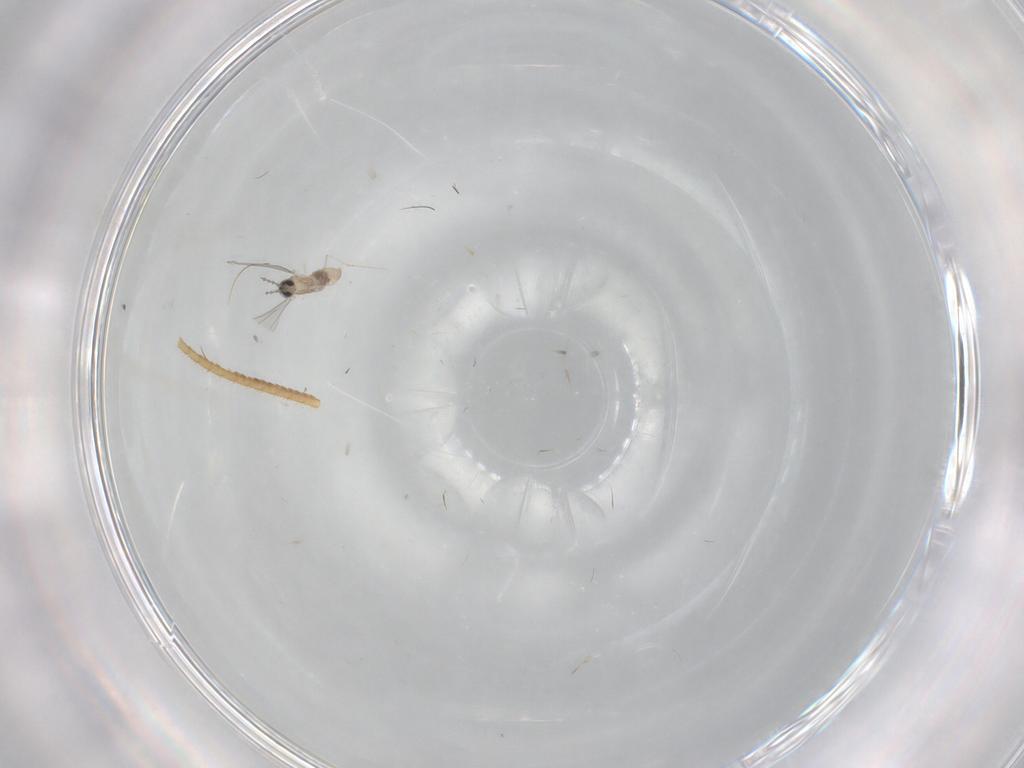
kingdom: Animalia
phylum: Arthropoda
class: Insecta
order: Diptera
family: Cecidomyiidae
